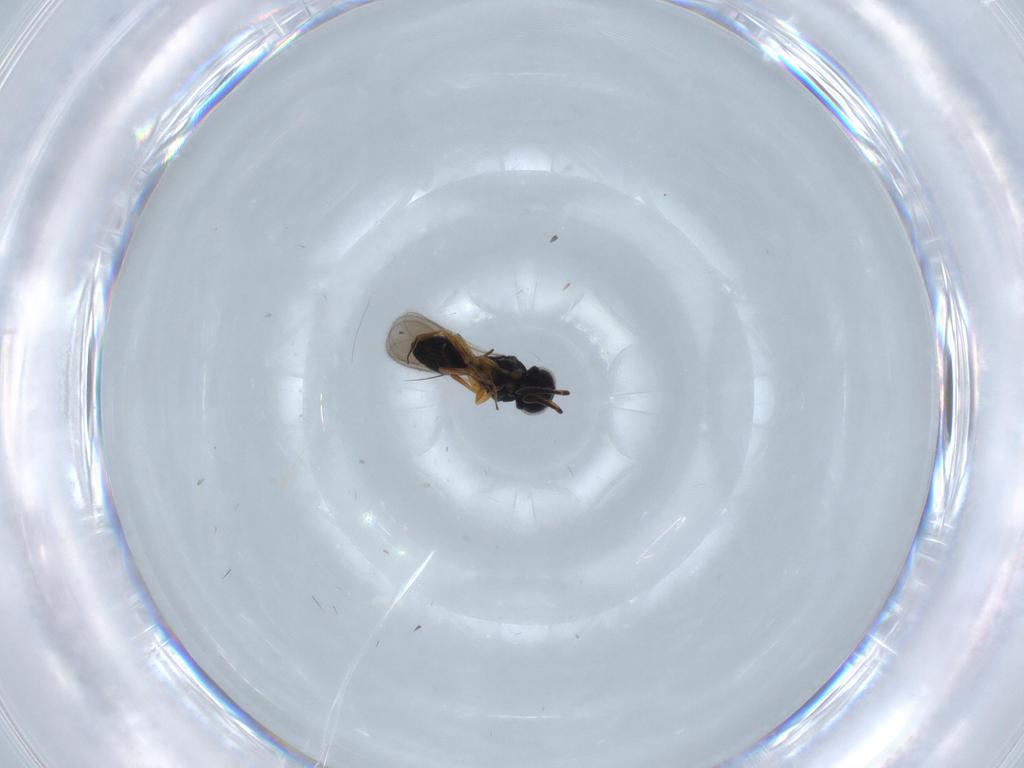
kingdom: Animalia
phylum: Arthropoda
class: Insecta
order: Hymenoptera
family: Scelionidae
